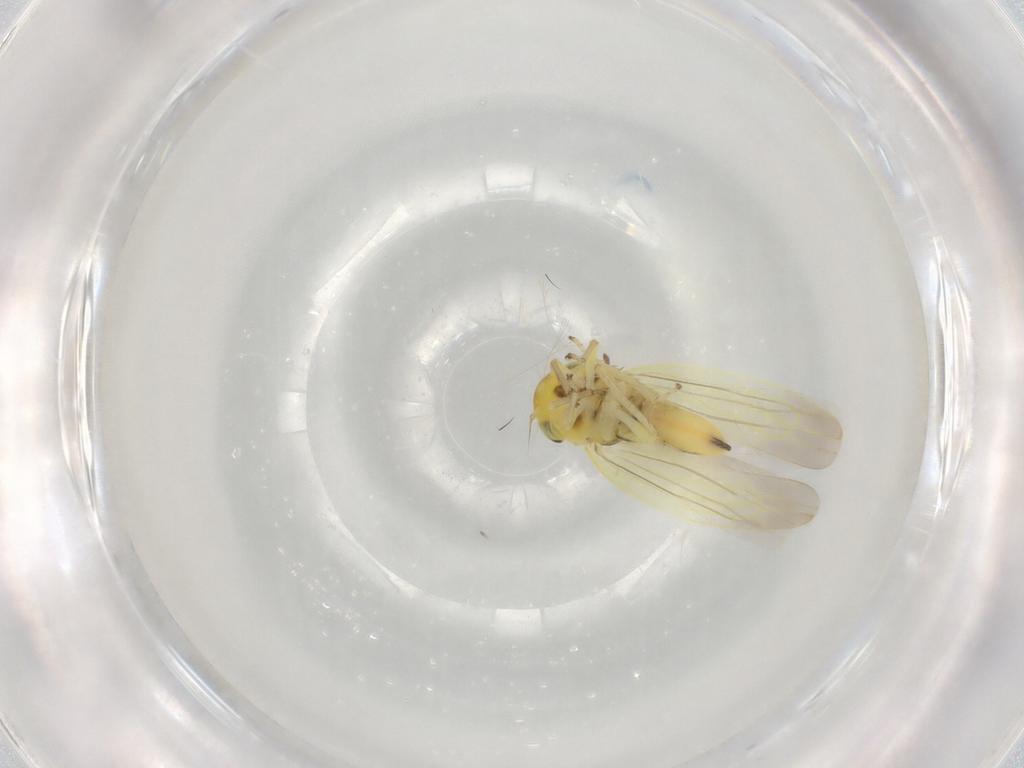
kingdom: Animalia
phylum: Arthropoda
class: Insecta
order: Hemiptera
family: Cicadellidae
